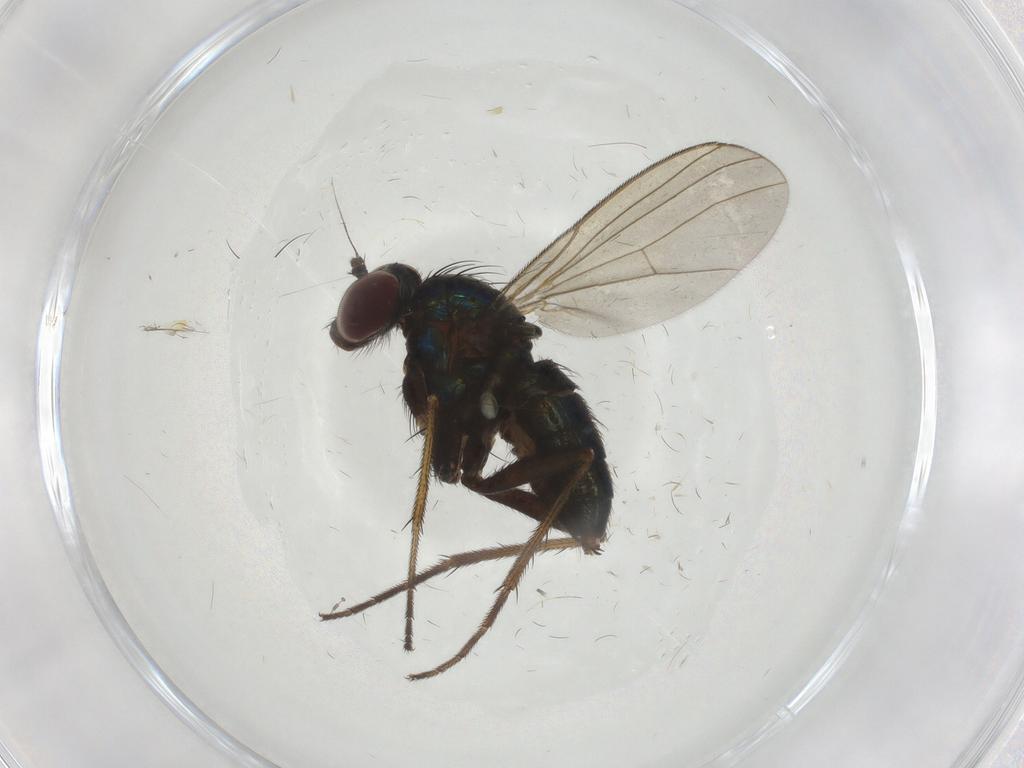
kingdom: Animalia
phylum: Arthropoda
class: Insecta
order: Diptera
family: Dolichopodidae
